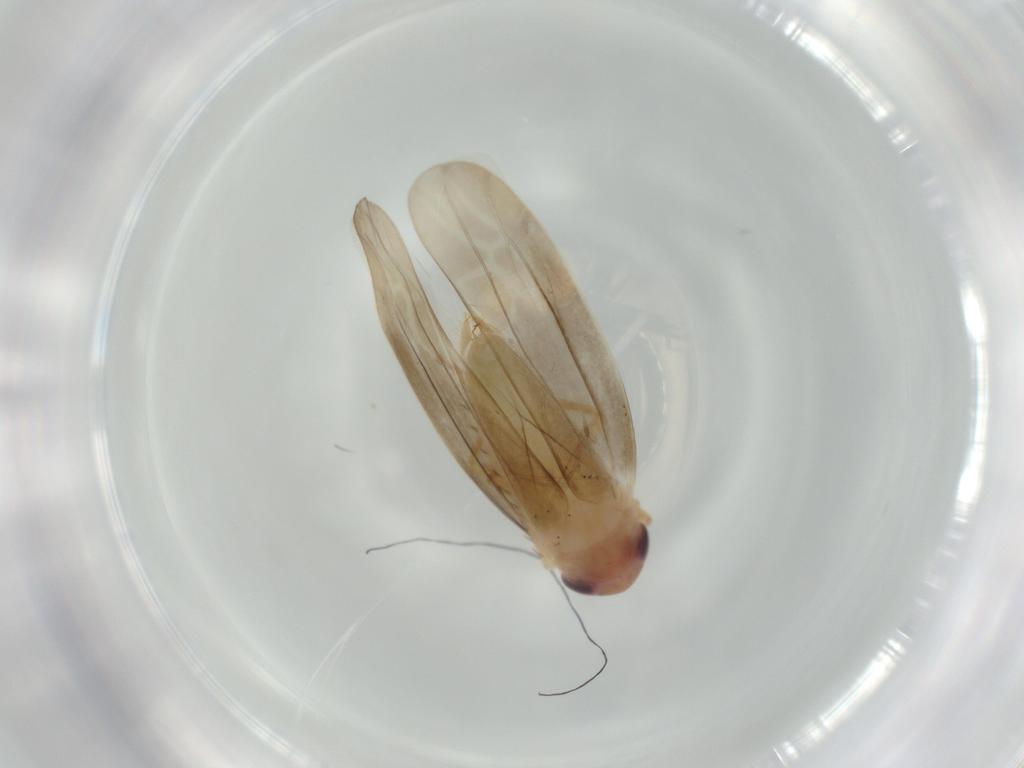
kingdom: Animalia
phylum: Arthropoda
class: Insecta
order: Hemiptera
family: Cicadellidae
